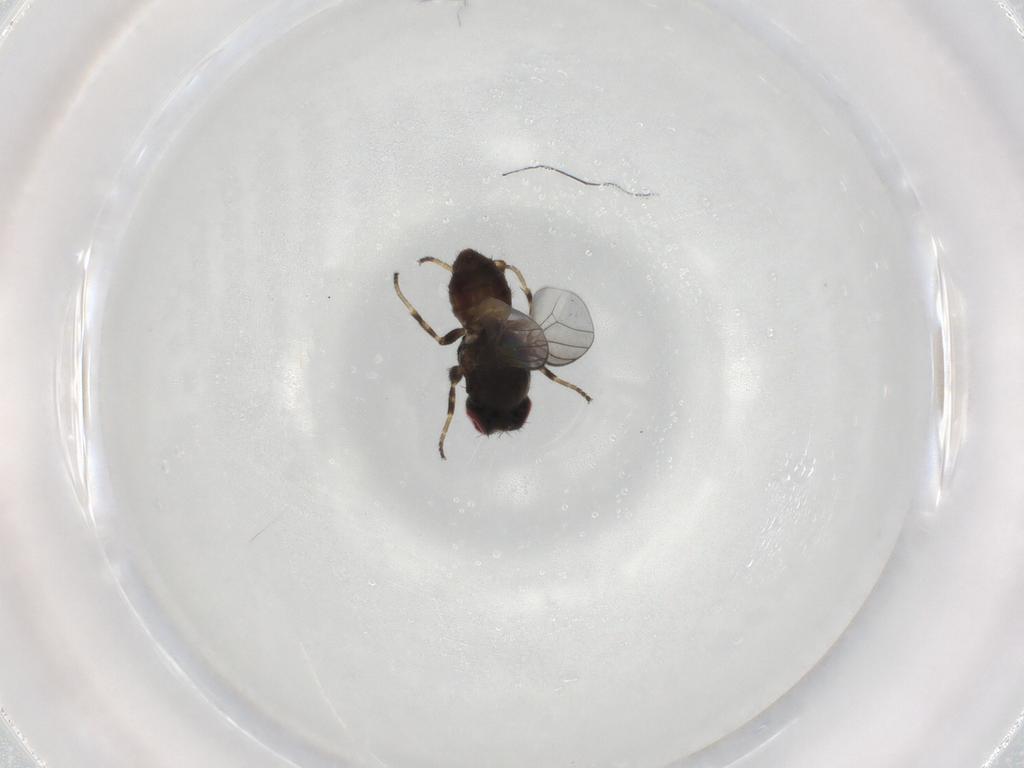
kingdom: Animalia
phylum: Arthropoda
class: Insecta
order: Diptera
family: Chloropidae
